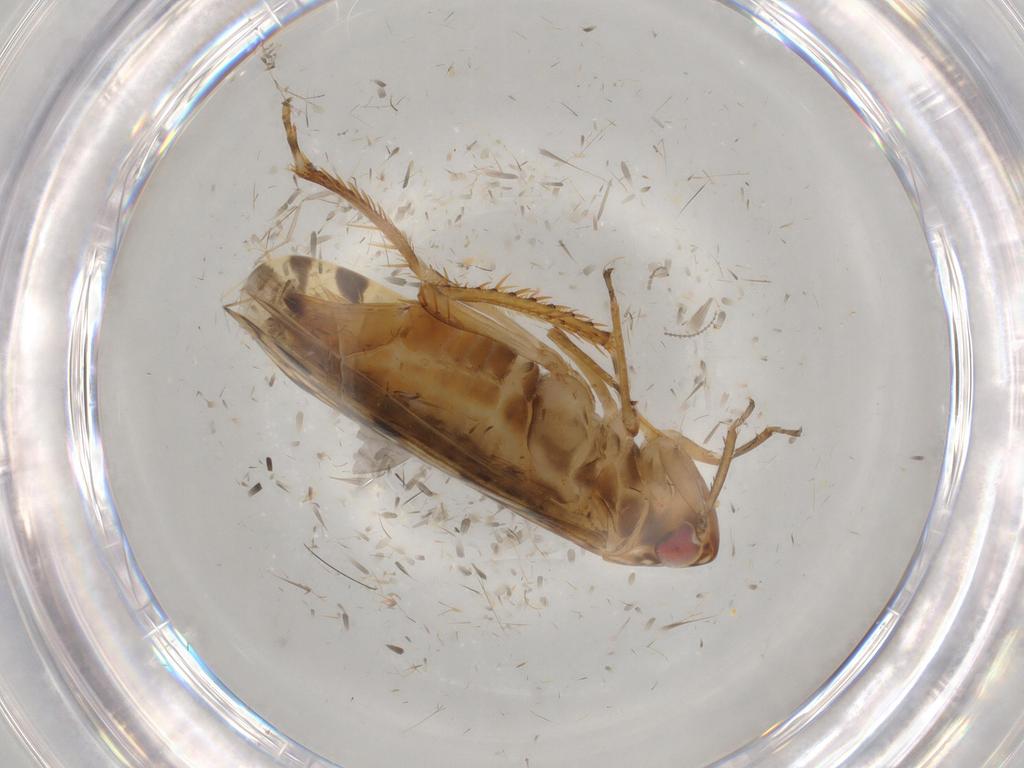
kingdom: Animalia
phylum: Arthropoda
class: Insecta
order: Hemiptera
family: Cicadellidae
